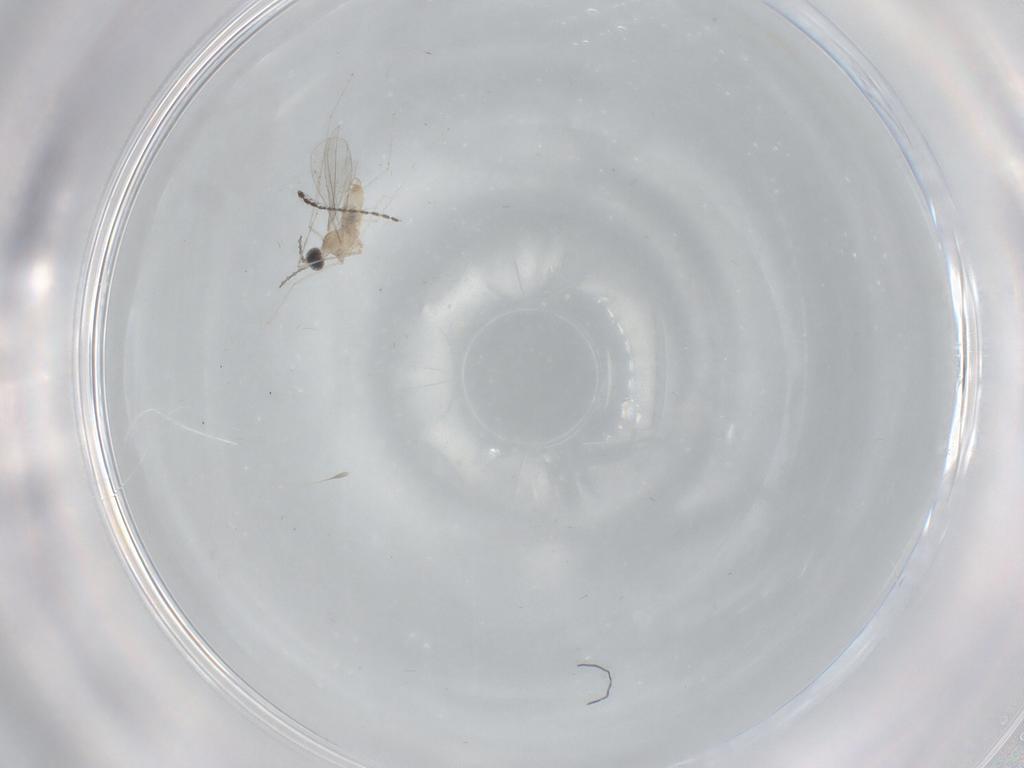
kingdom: Animalia
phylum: Arthropoda
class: Insecta
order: Diptera
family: Cecidomyiidae
